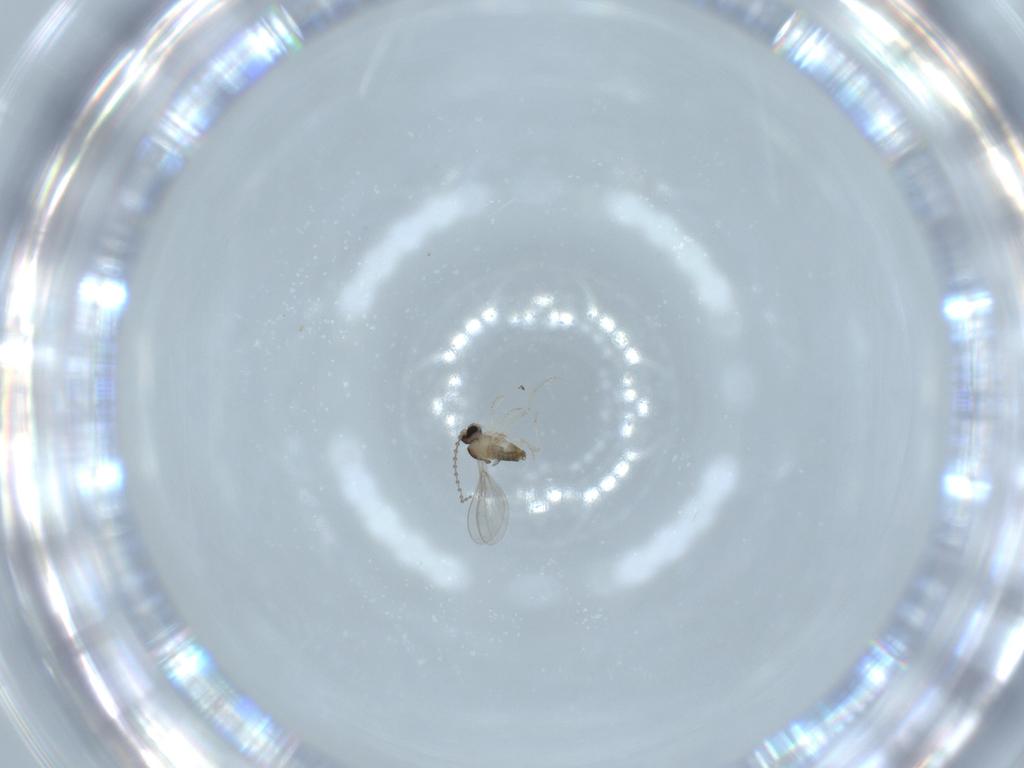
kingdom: Animalia
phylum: Arthropoda
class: Insecta
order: Diptera
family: Cecidomyiidae
